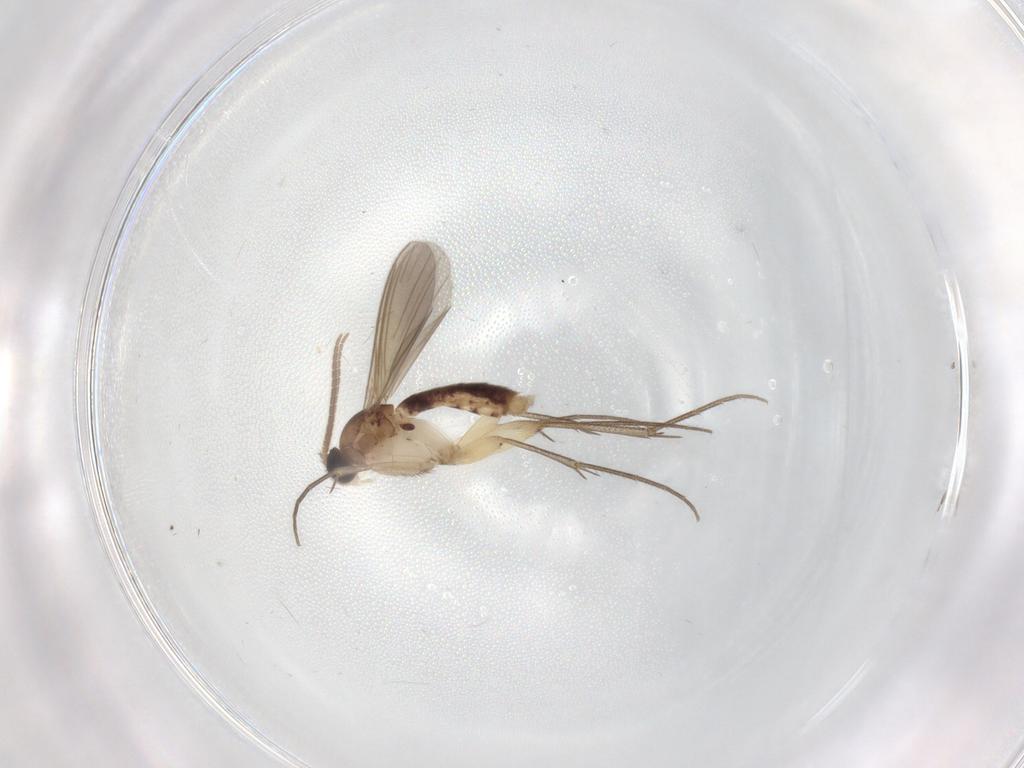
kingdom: Animalia
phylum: Arthropoda
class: Insecta
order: Diptera
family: Mycetophilidae
